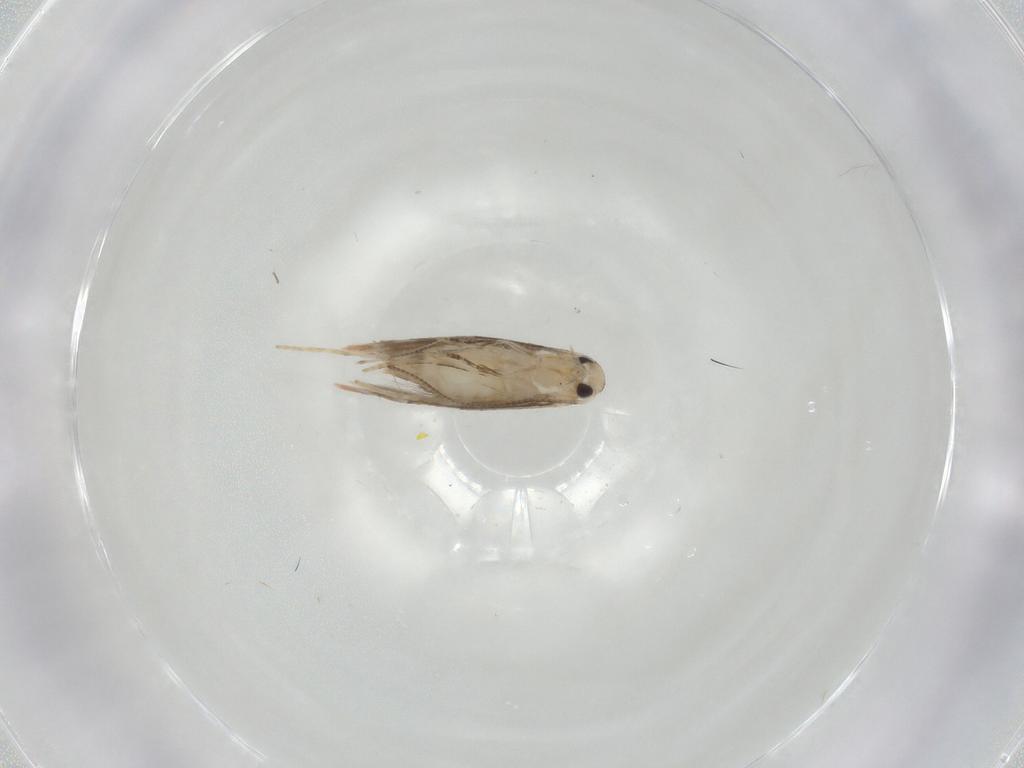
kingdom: Animalia
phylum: Arthropoda
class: Insecta
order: Lepidoptera
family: Gracillariidae
